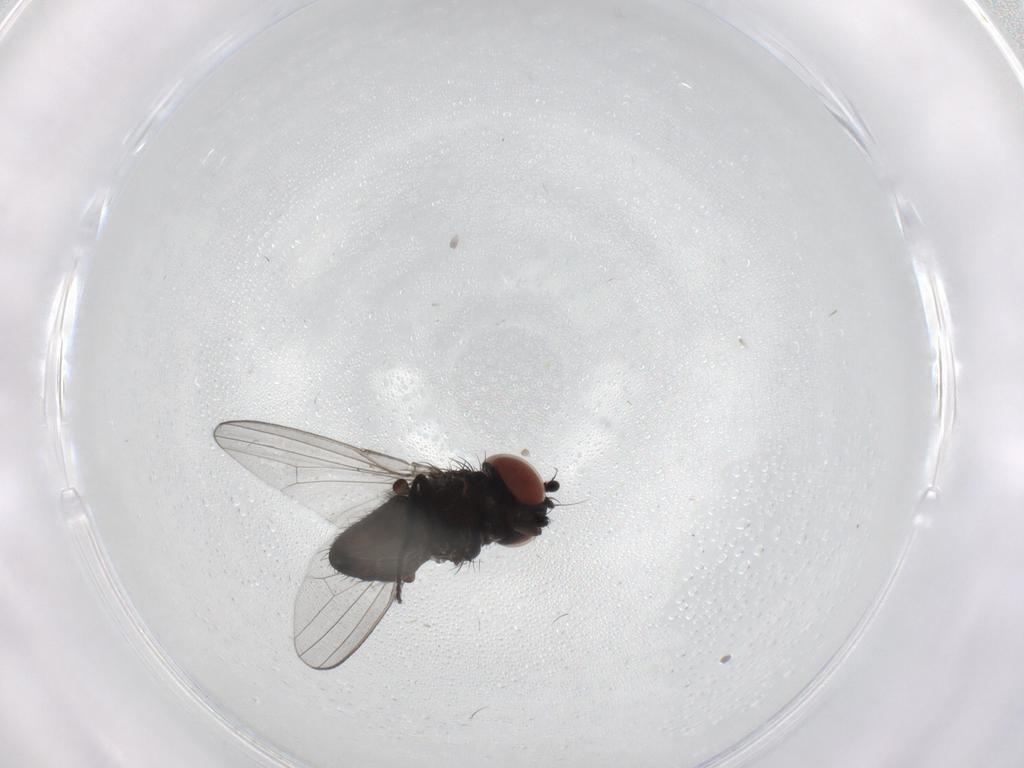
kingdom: Animalia
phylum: Arthropoda
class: Insecta
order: Diptera
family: Milichiidae
